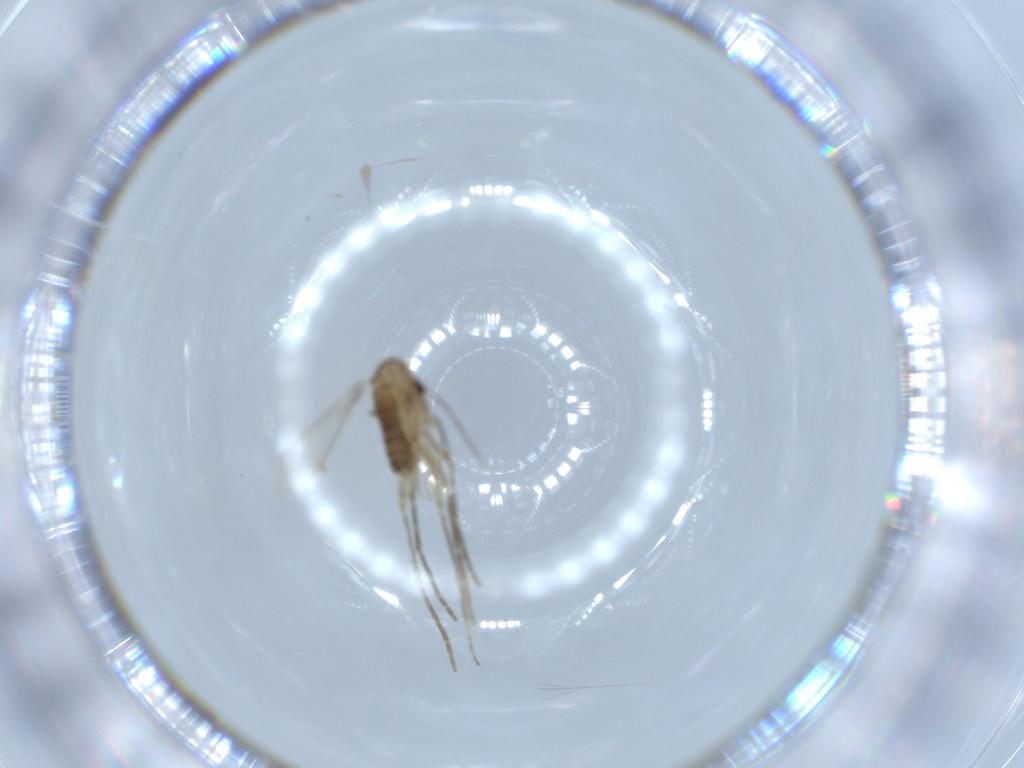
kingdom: Animalia
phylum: Arthropoda
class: Insecta
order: Diptera
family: Psychodidae
